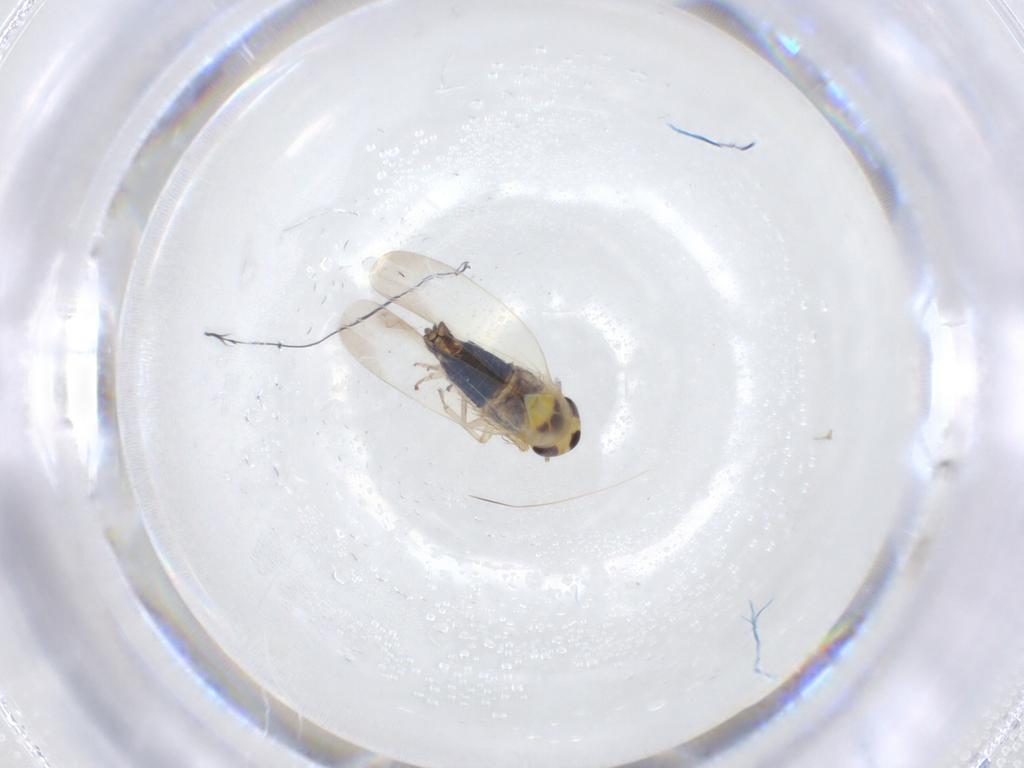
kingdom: Animalia
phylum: Arthropoda
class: Insecta
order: Hemiptera
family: Cicadellidae
